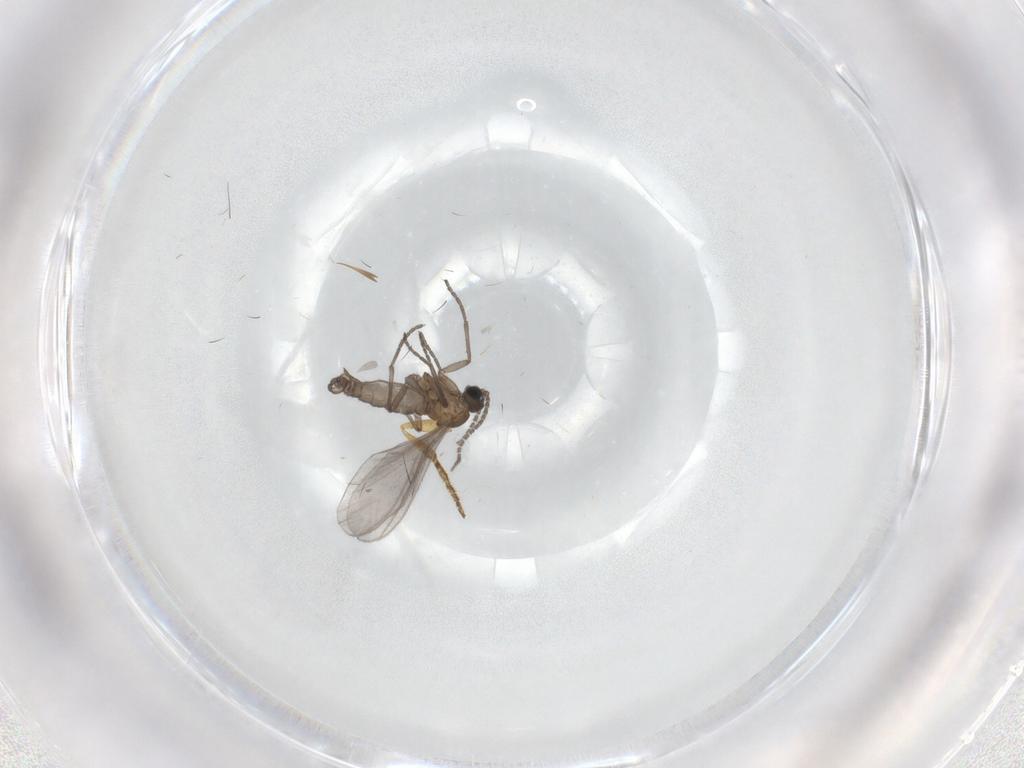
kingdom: Animalia
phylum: Arthropoda
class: Insecta
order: Diptera
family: Sciaridae
